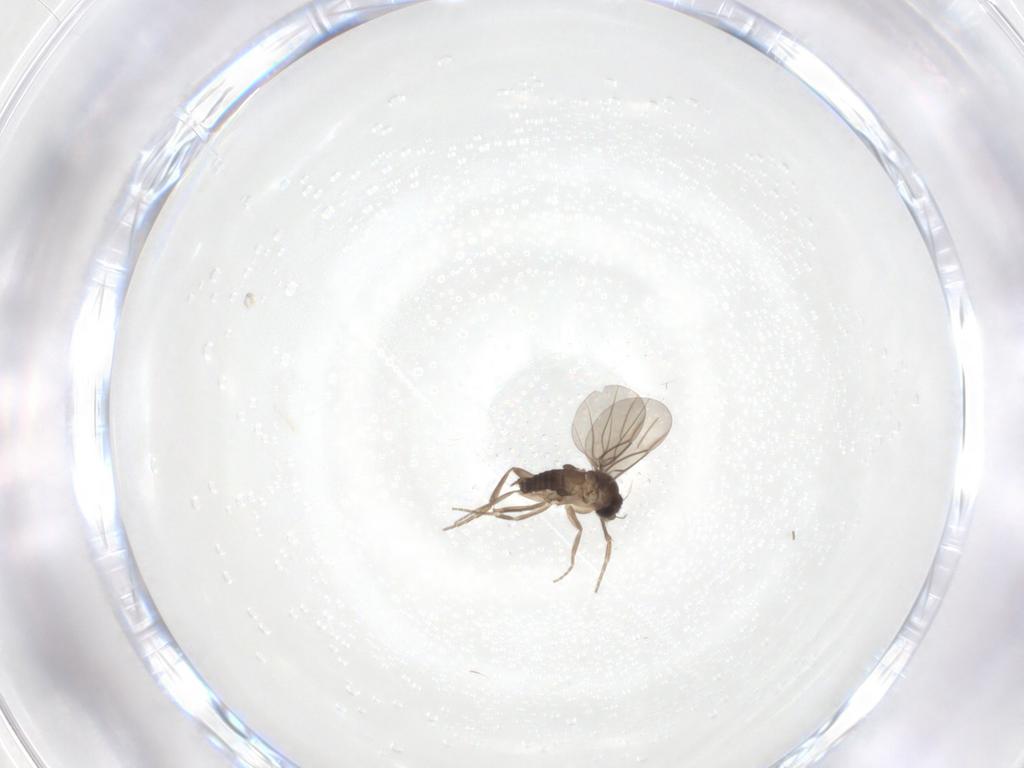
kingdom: Animalia
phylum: Arthropoda
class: Insecta
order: Diptera
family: Phoridae
